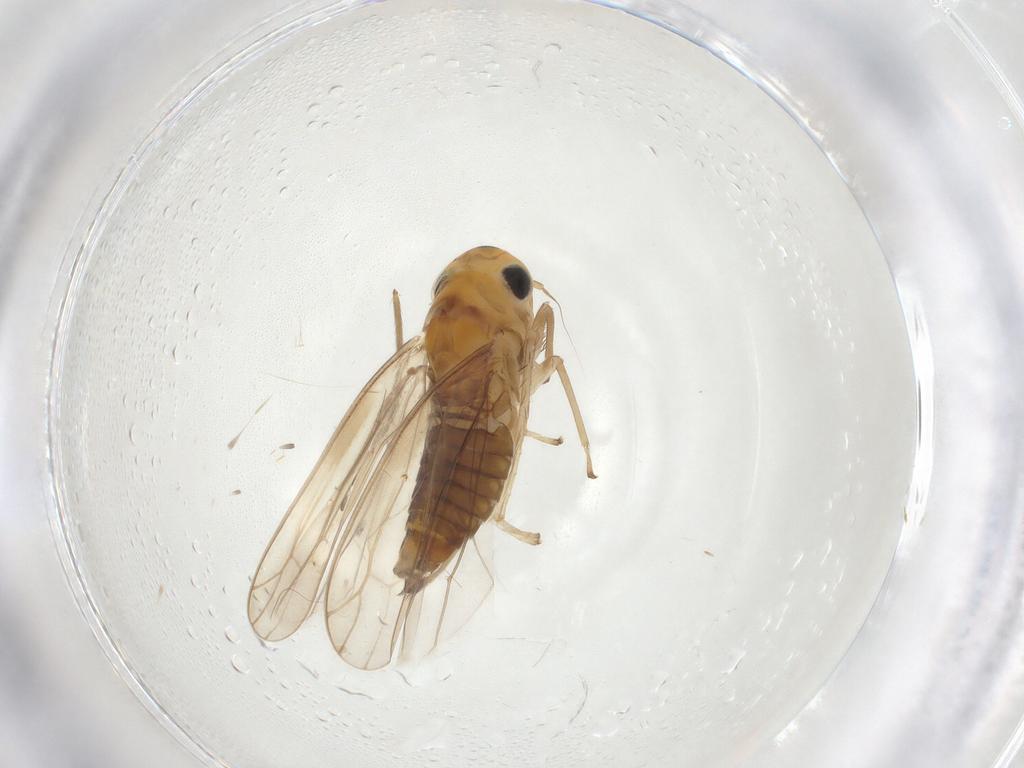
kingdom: Animalia
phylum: Arthropoda
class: Insecta
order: Hemiptera
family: Cicadellidae
